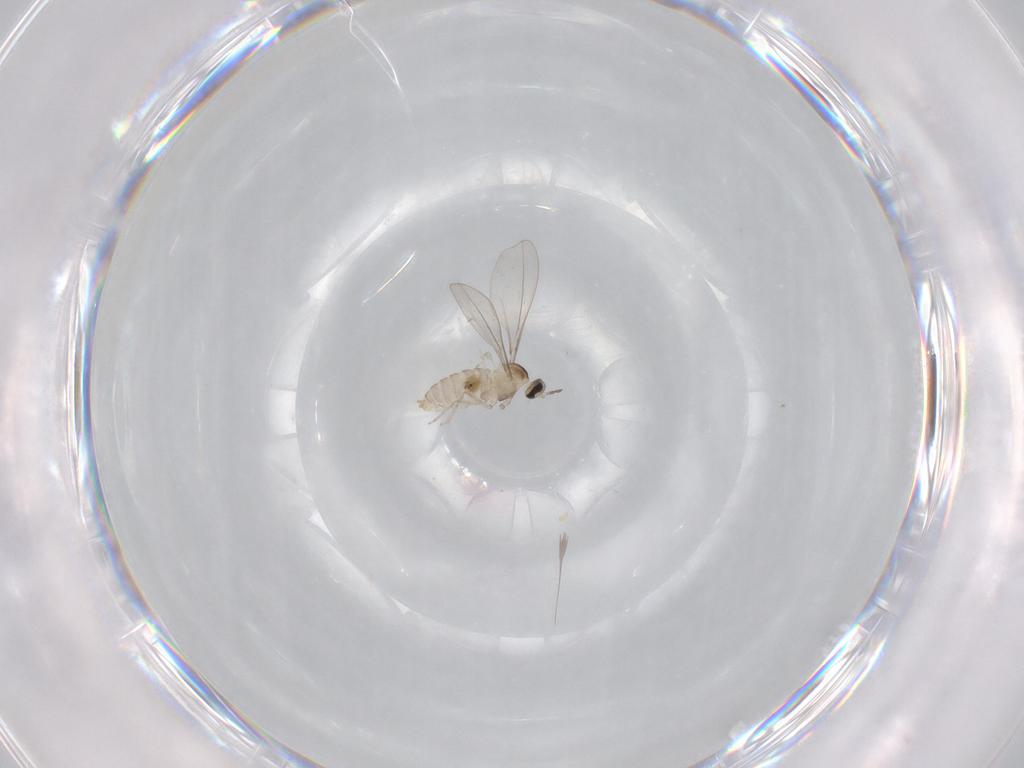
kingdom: Animalia
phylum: Arthropoda
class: Insecta
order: Diptera
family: Cecidomyiidae
